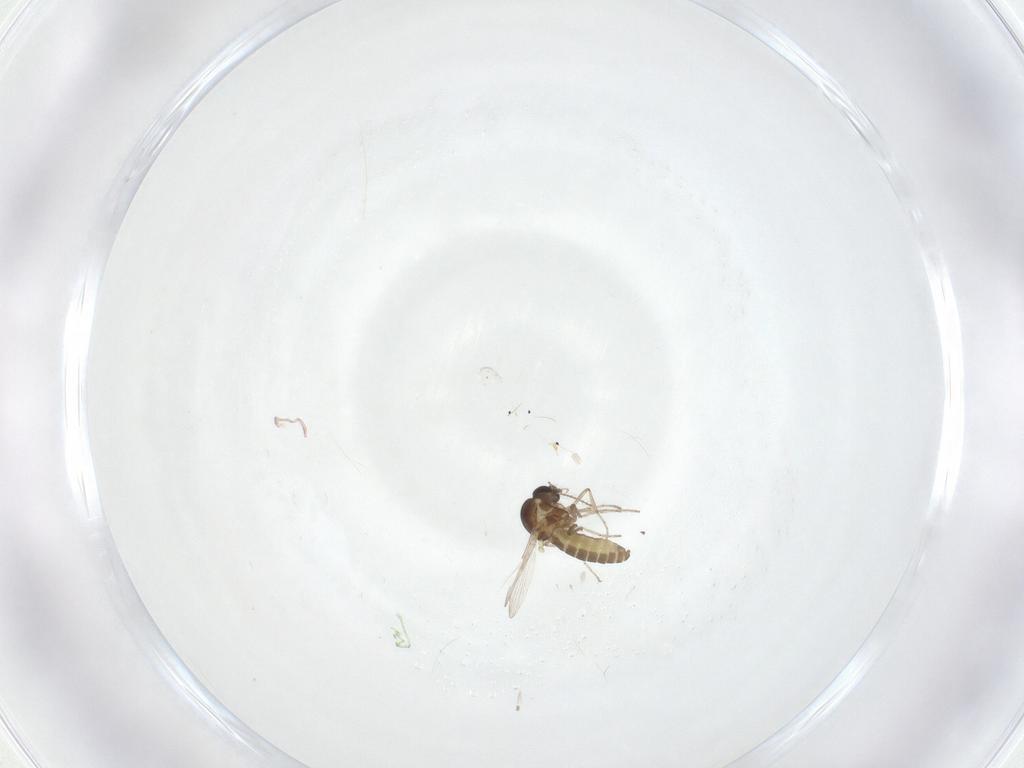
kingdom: Animalia
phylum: Arthropoda
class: Insecta
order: Diptera
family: Ceratopogonidae
